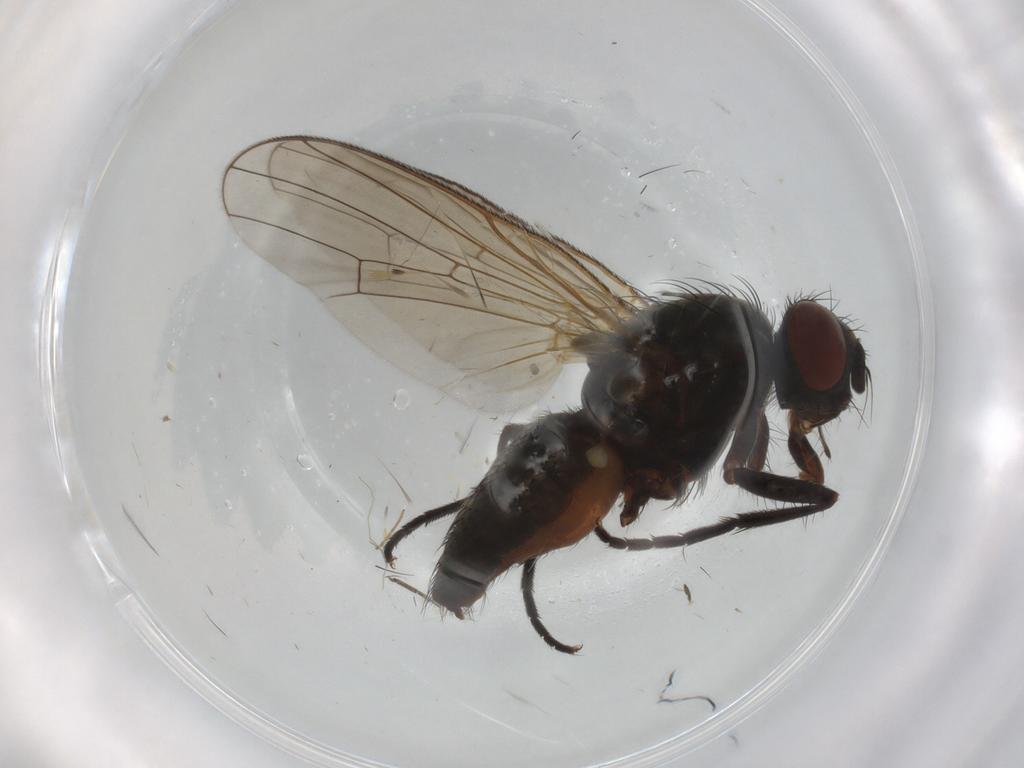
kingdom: Animalia
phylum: Arthropoda
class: Insecta
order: Diptera
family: Anthomyiidae
